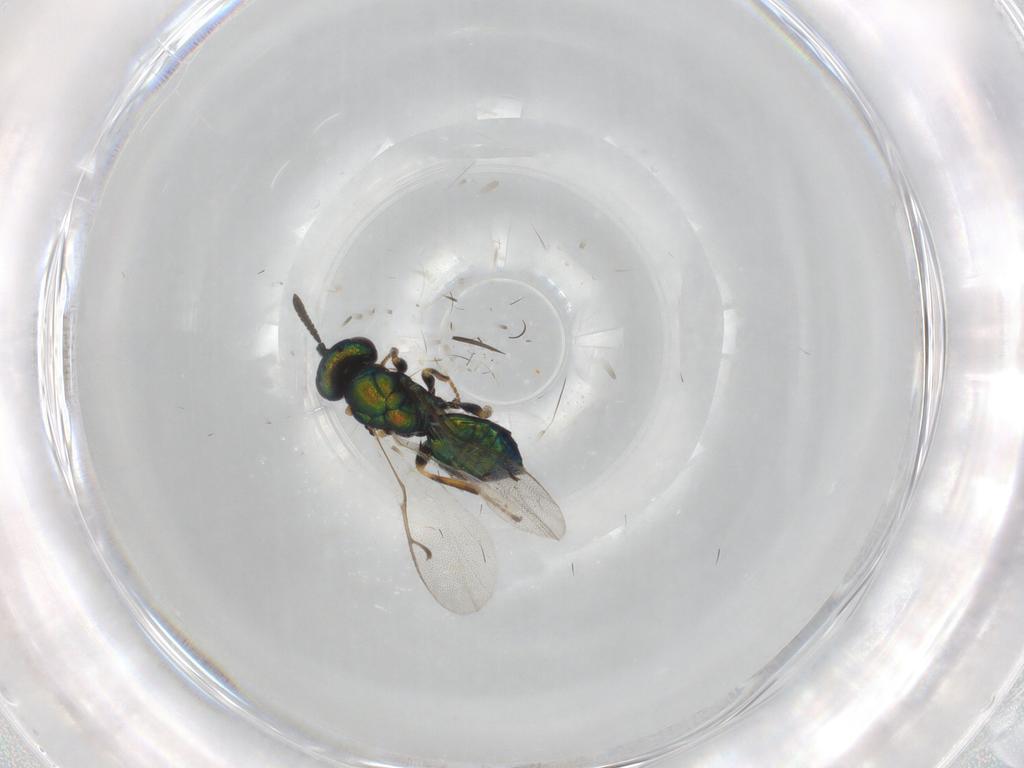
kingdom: Animalia
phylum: Arthropoda
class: Insecta
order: Hymenoptera
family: Pteromalidae
